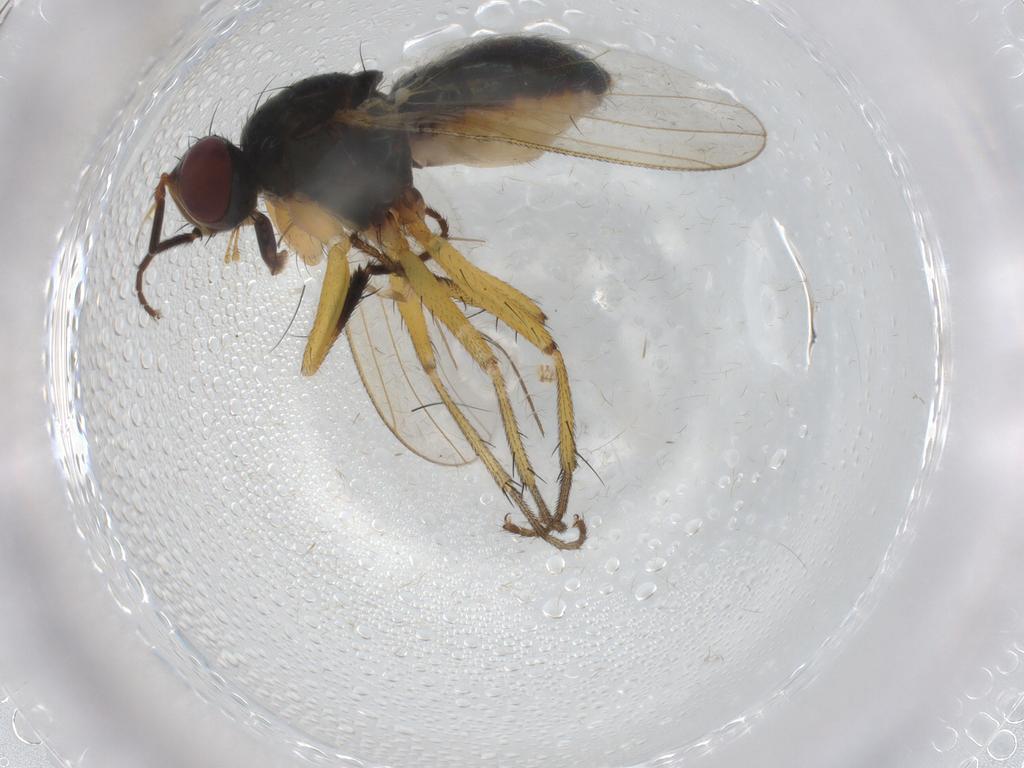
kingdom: Animalia
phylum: Arthropoda
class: Insecta
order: Diptera
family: Muscidae
